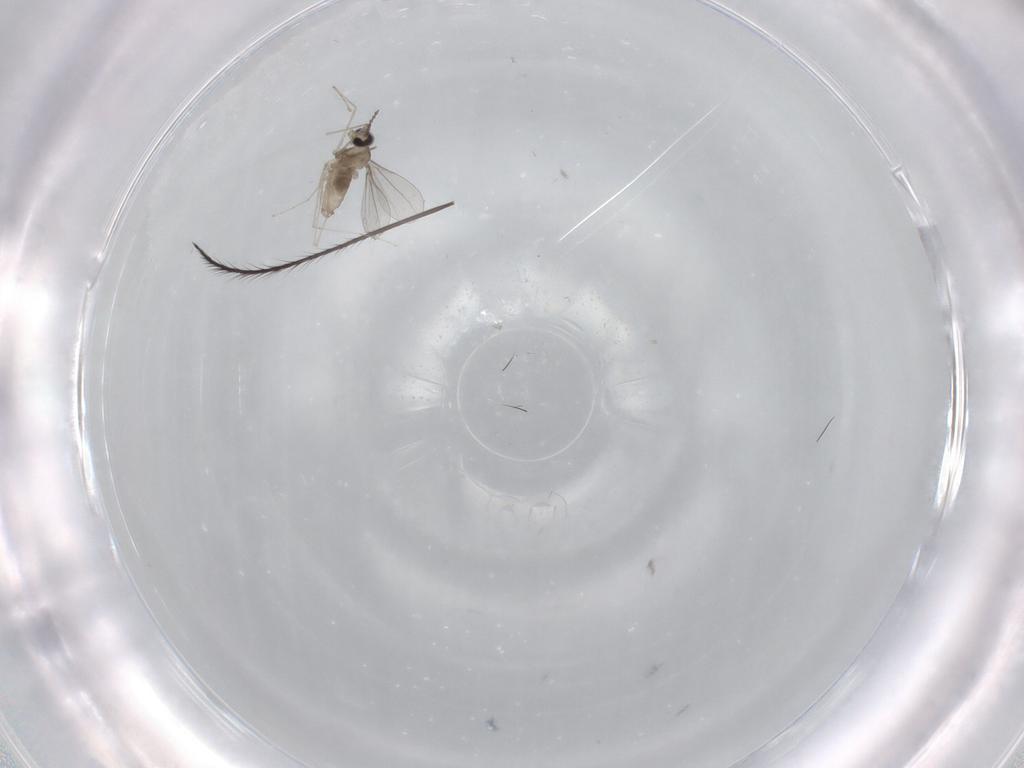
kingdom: Animalia
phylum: Arthropoda
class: Insecta
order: Diptera
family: Cecidomyiidae
